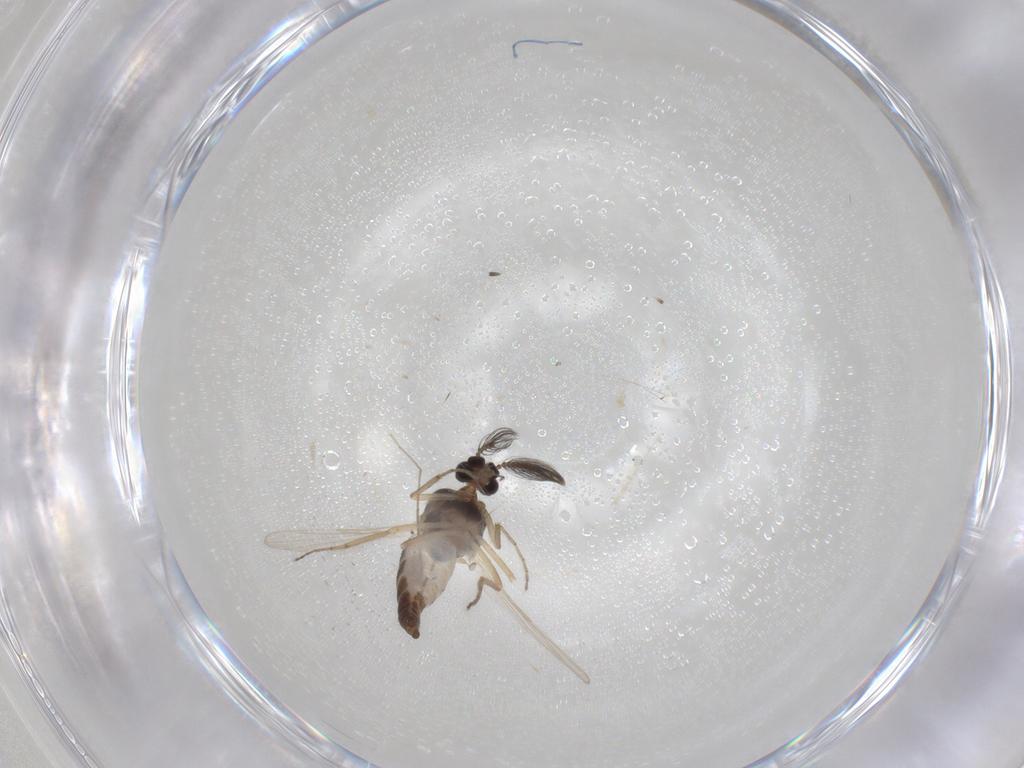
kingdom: Animalia
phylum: Arthropoda
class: Insecta
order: Diptera
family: Ceratopogonidae
